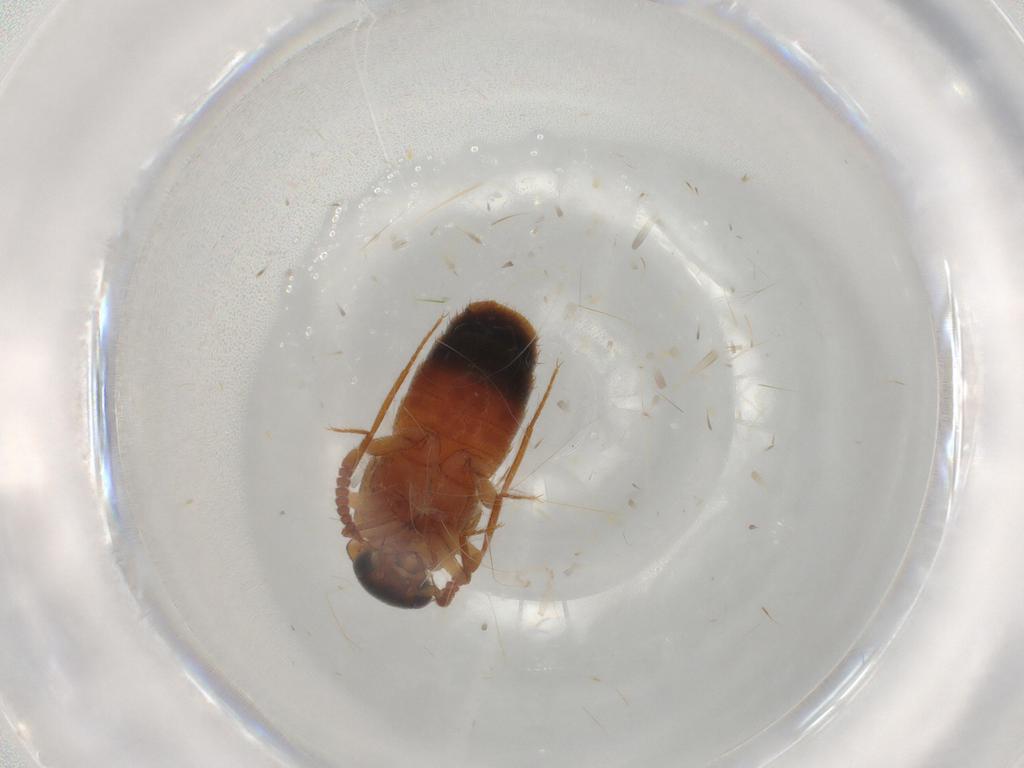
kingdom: Animalia
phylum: Arthropoda
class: Insecta
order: Coleoptera
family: Staphylinidae
